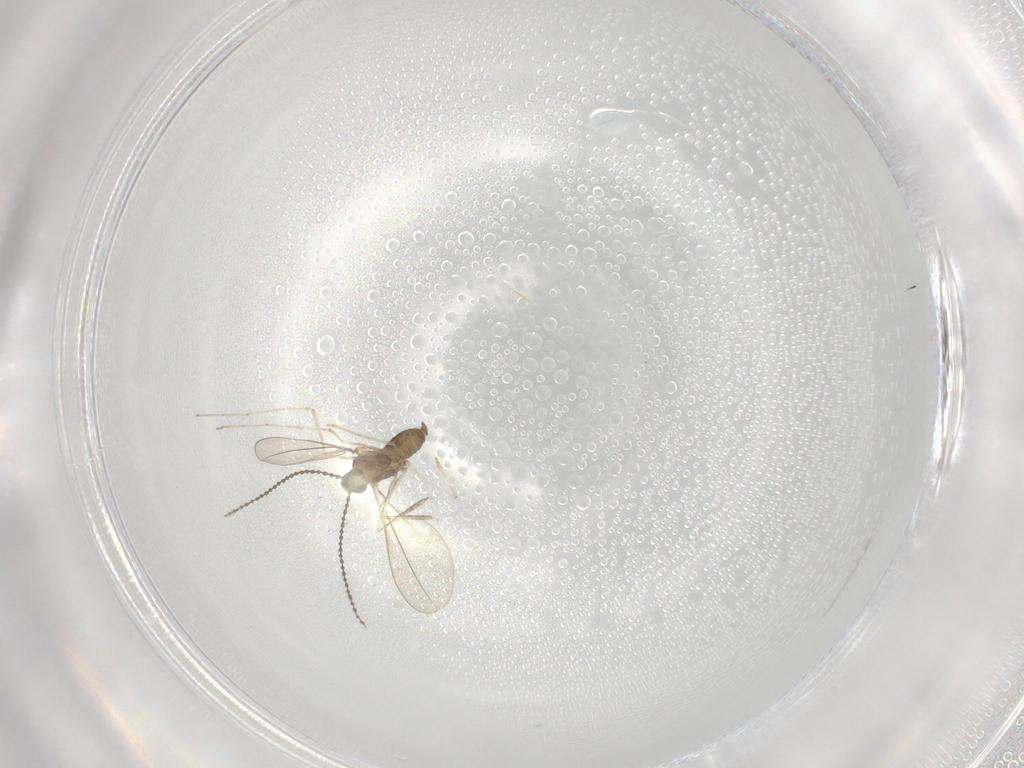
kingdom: Animalia
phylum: Arthropoda
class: Insecta
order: Diptera
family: Cecidomyiidae
